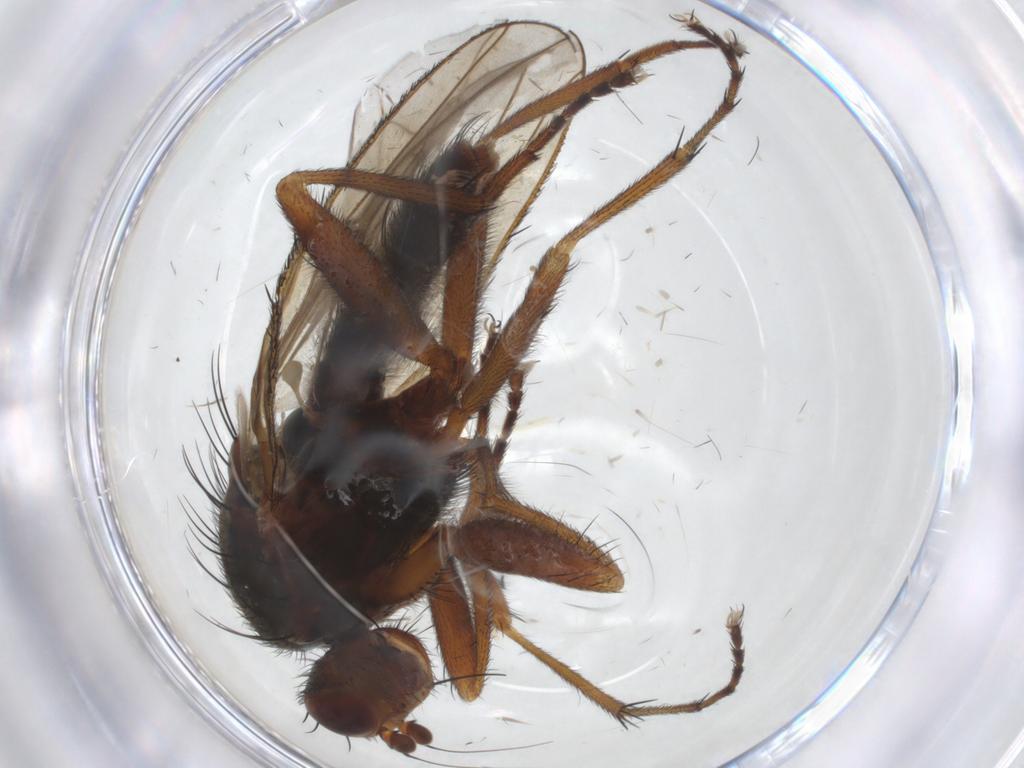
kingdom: Animalia
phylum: Arthropoda
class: Insecta
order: Diptera
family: Heleomyzidae
